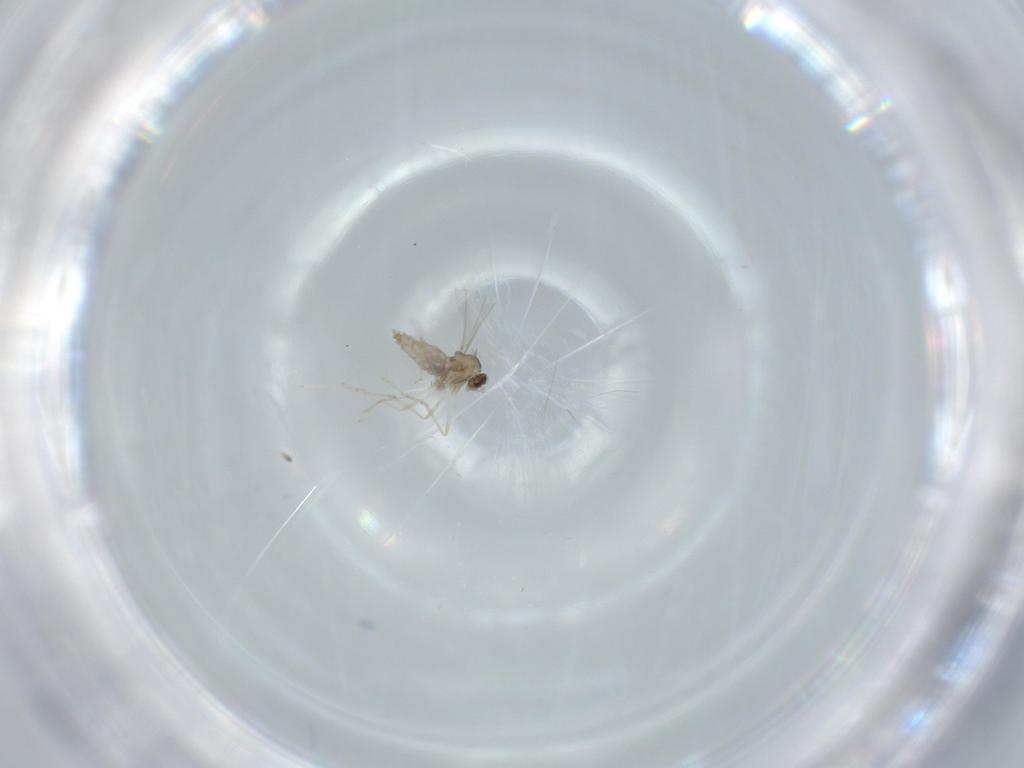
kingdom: Animalia
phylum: Arthropoda
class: Insecta
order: Diptera
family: Cecidomyiidae
